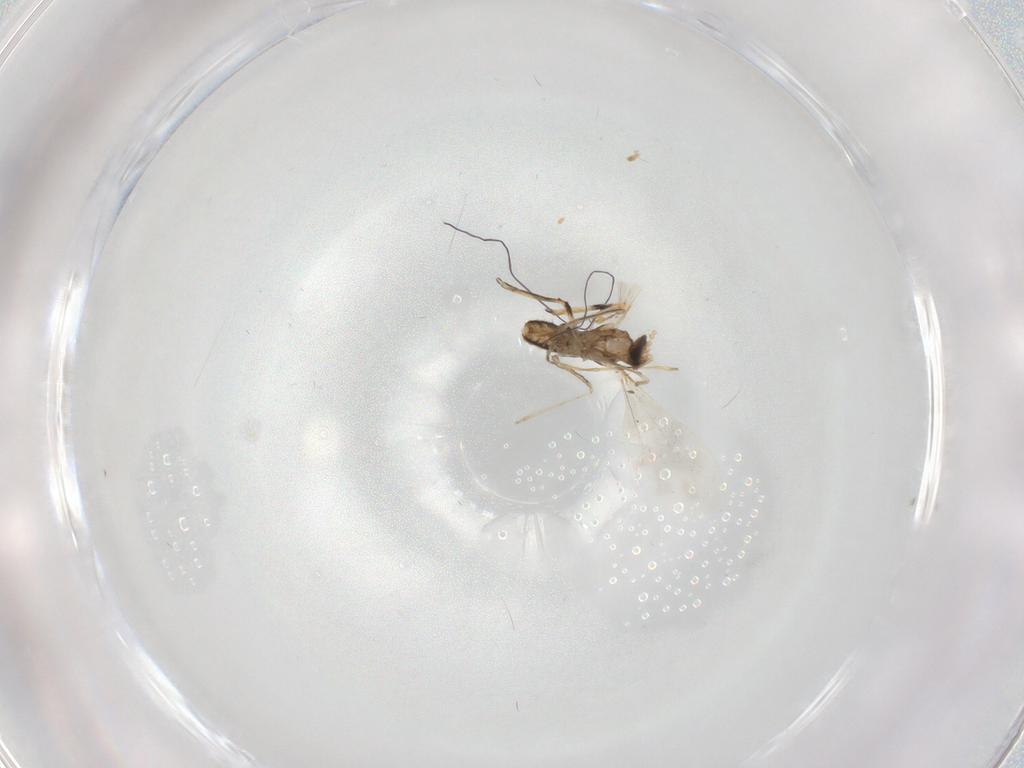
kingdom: Animalia
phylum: Arthropoda
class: Insecta
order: Diptera
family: Cecidomyiidae
